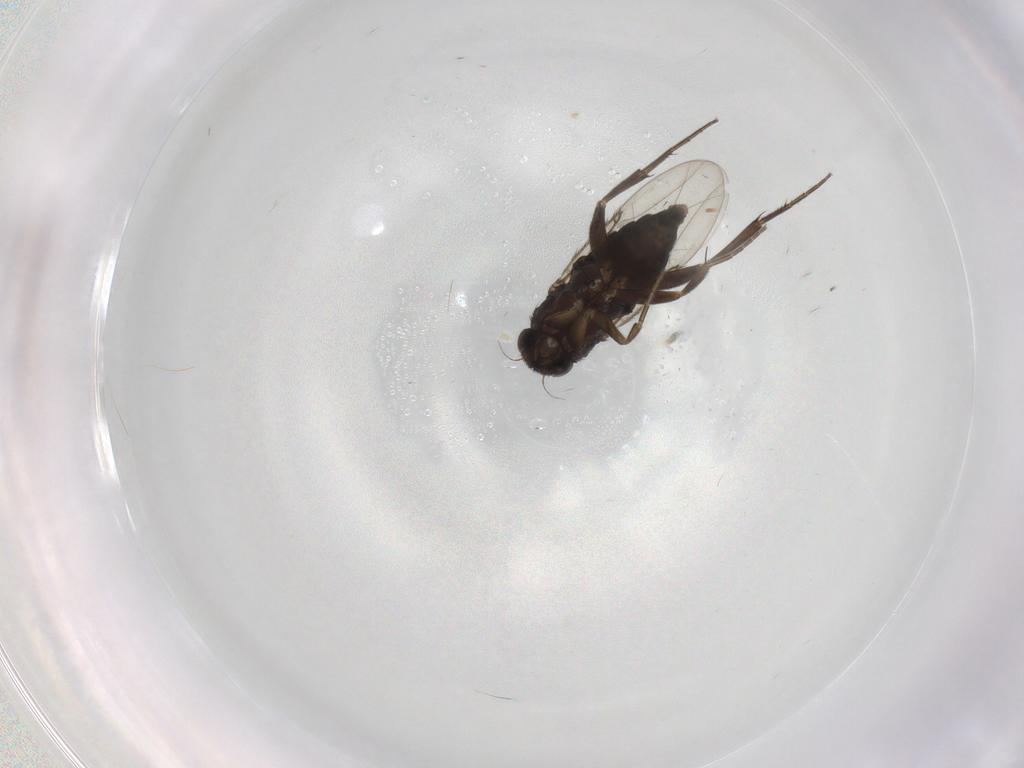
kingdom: Animalia
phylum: Arthropoda
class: Insecta
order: Diptera
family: Phoridae
